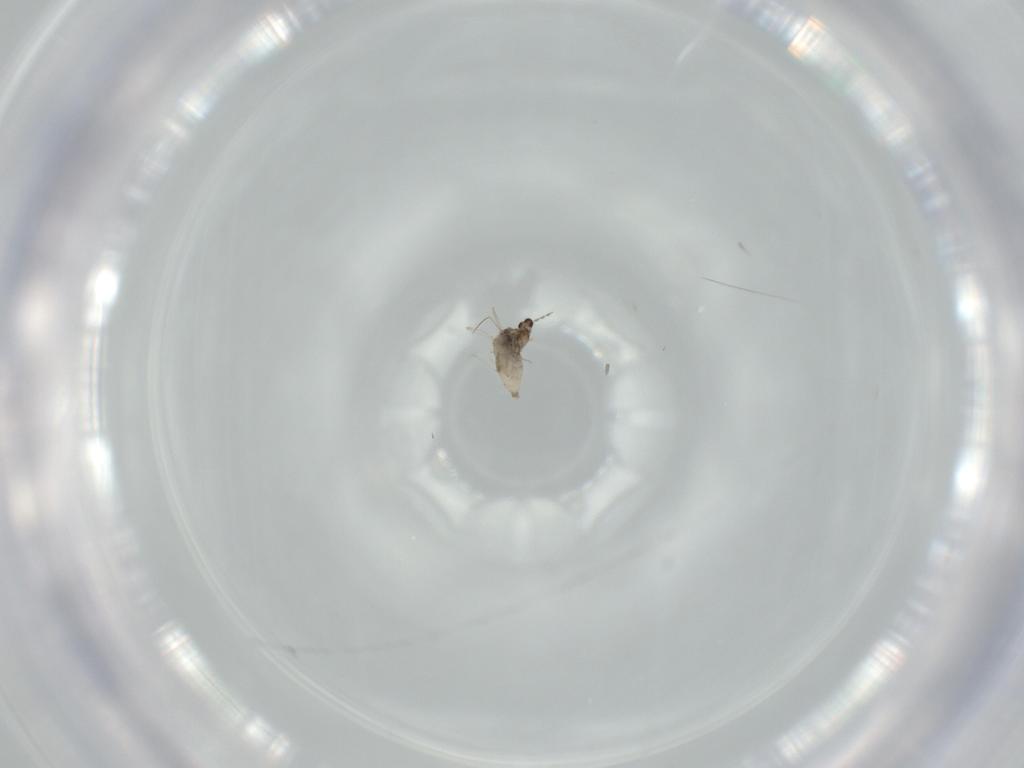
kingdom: Animalia
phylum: Arthropoda
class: Insecta
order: Diptera
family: Cecidomyiidae
